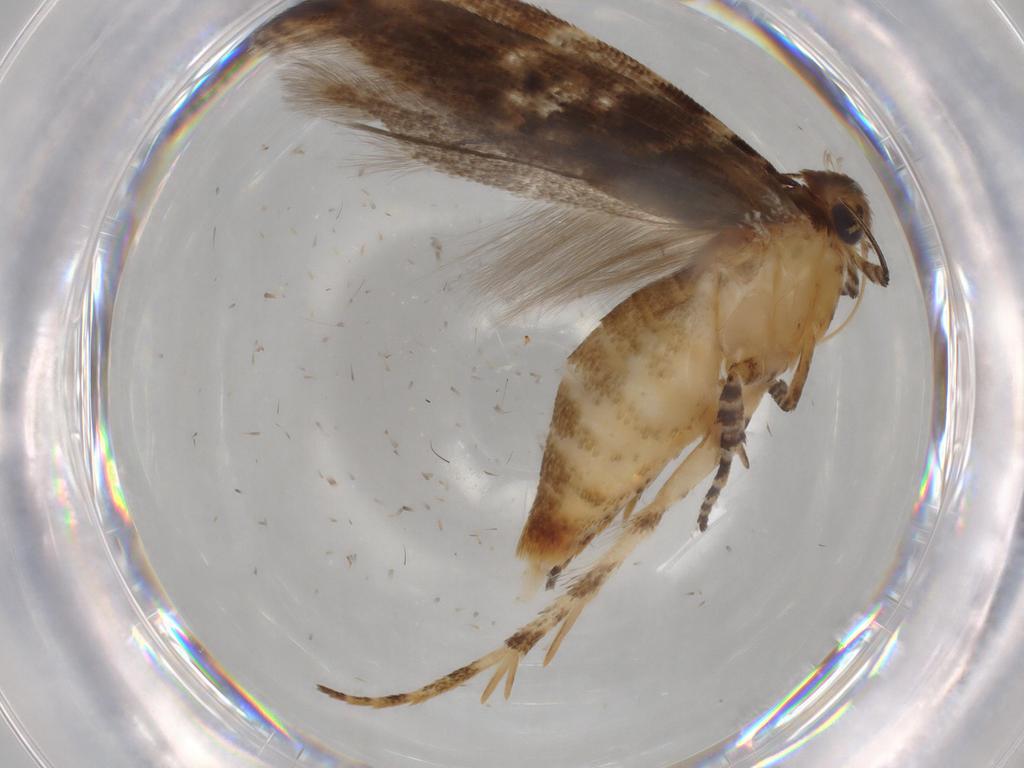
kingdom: Animalia
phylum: Arthropoda
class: Insecta
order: Lepidoptera
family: Gelechiidae
